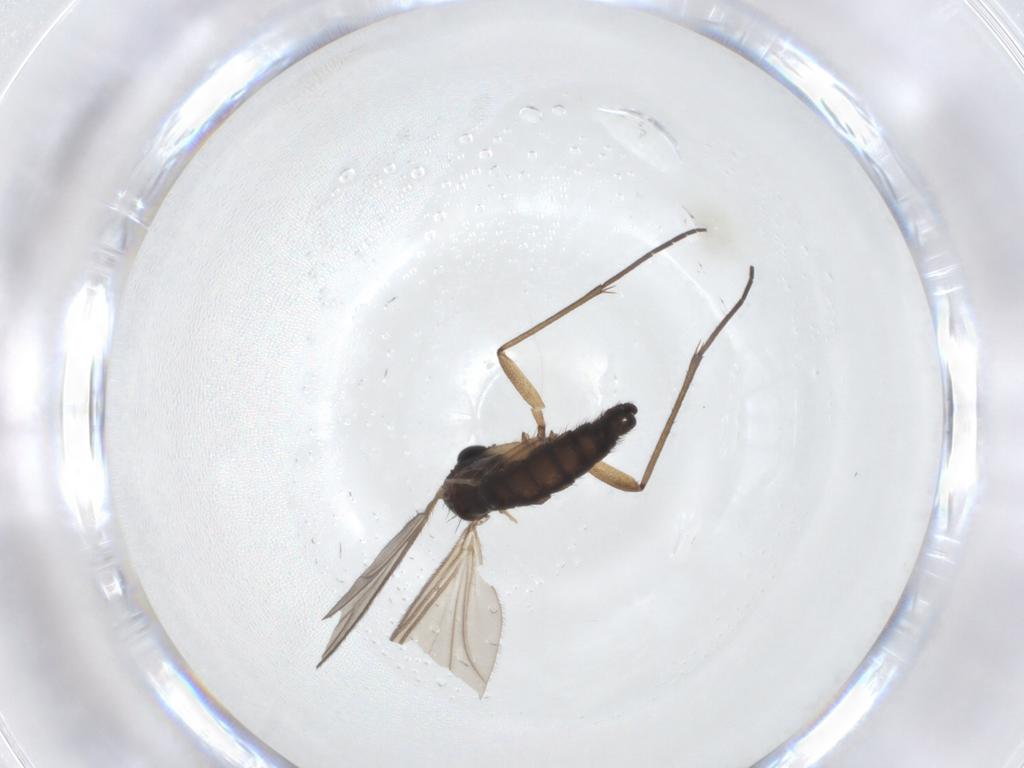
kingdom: Animalia
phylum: Arthropoda
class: Insecta
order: Diptera
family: Sciaridae
